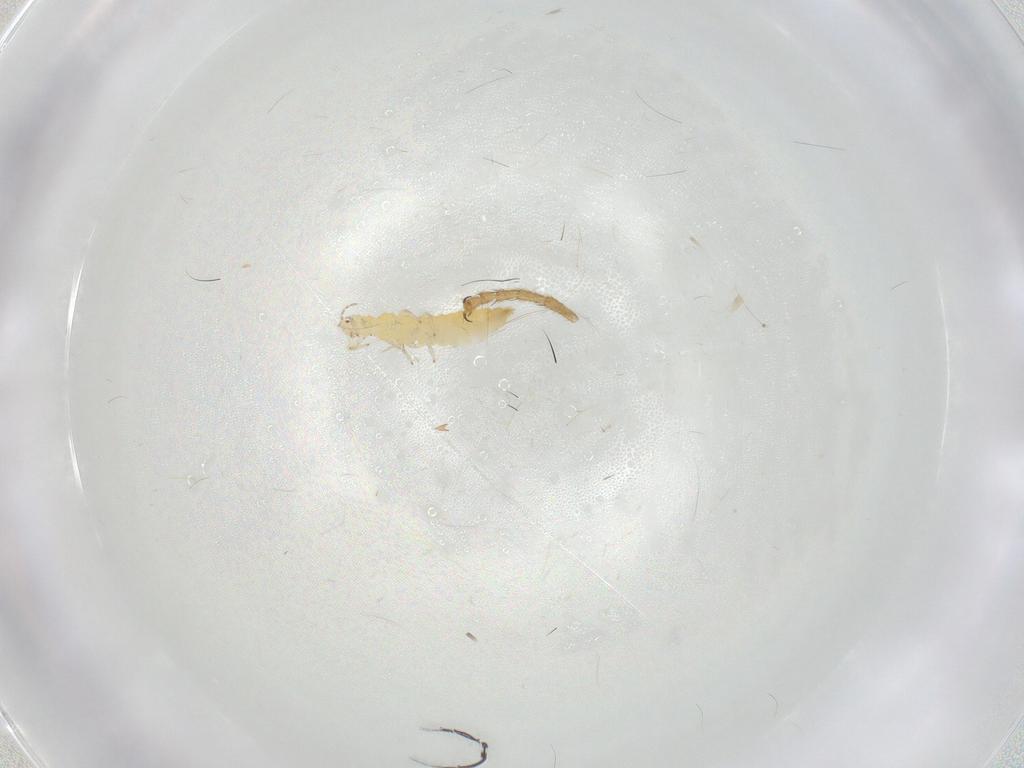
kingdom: Animalia
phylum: Arthropoda
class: Insecta
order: Thysanoptera
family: Aeolothripidae
